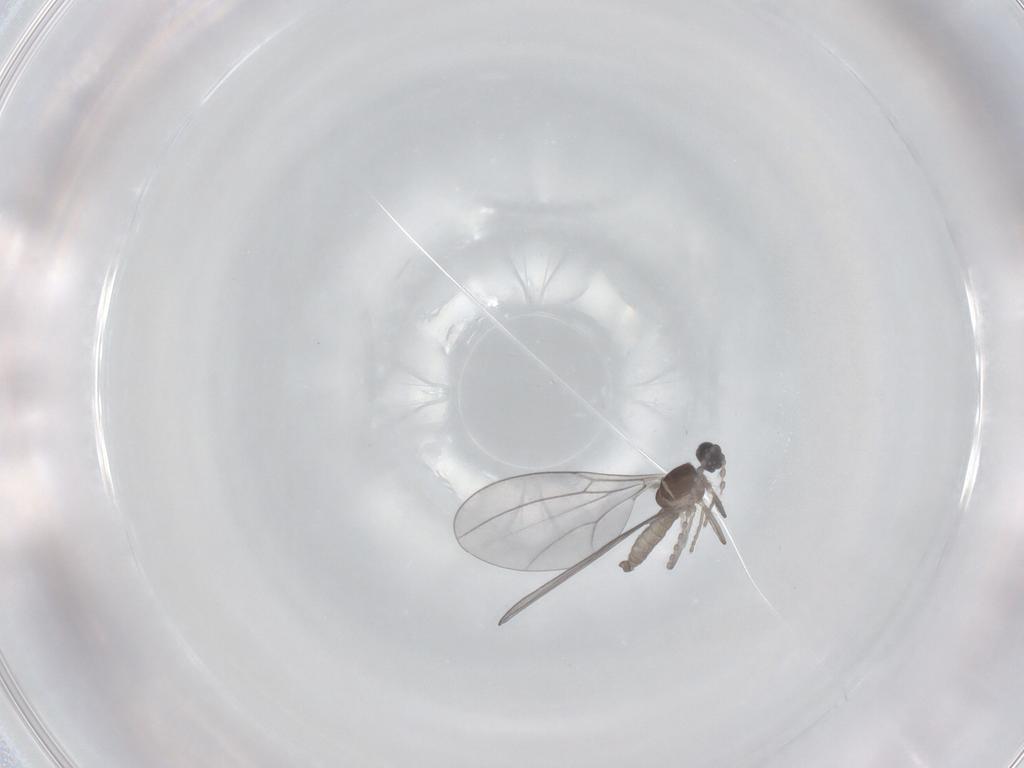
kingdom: Animalia
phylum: Arthropoda
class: Insecta
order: Diptera
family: Cecidomyiidae
